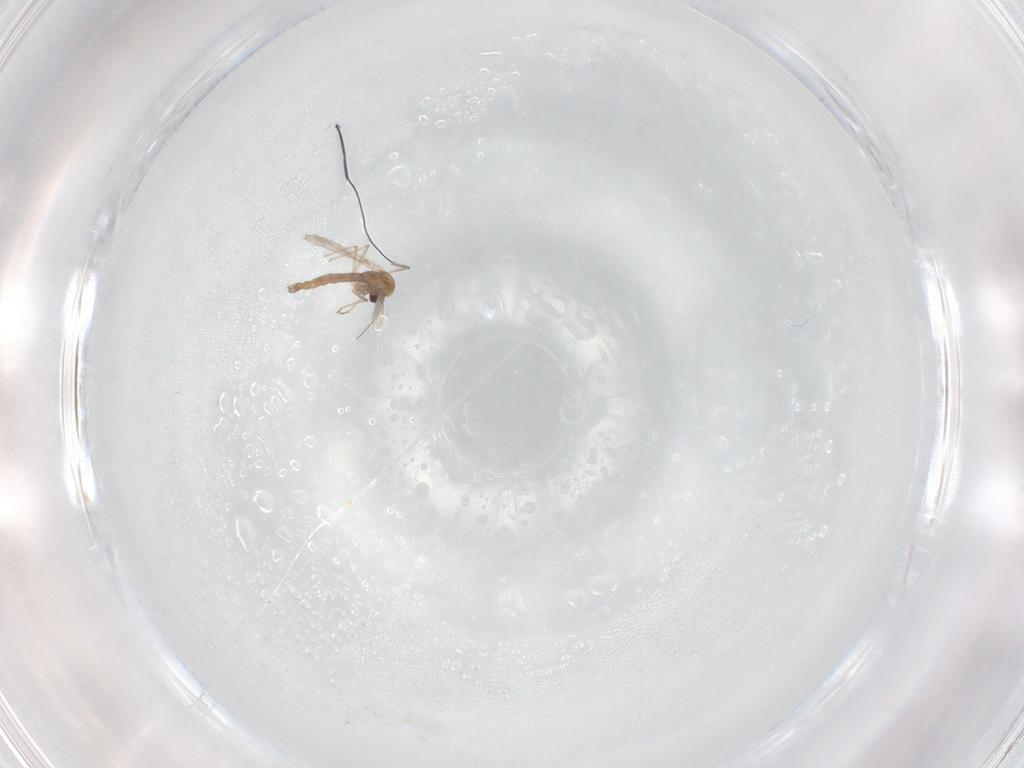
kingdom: Animalia
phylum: Arthropoda
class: Insecta
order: Diptera
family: Chironomidae
